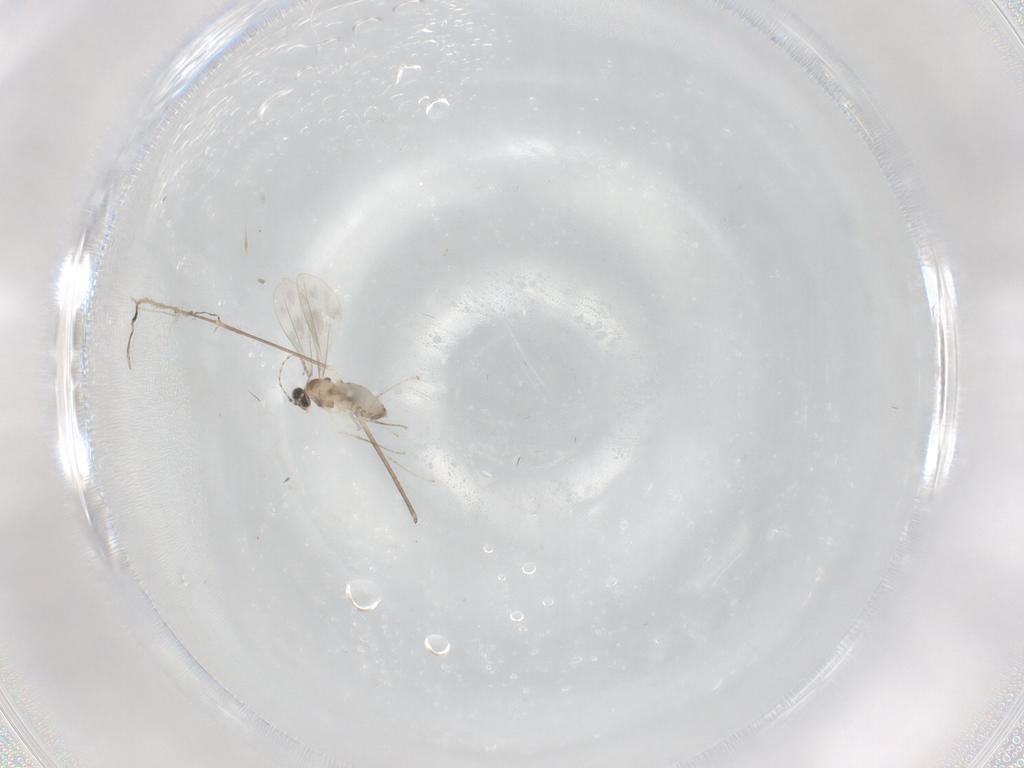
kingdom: Animalia
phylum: Arthropoda
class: Insecta
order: Diptera
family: Cecidomyiidae
